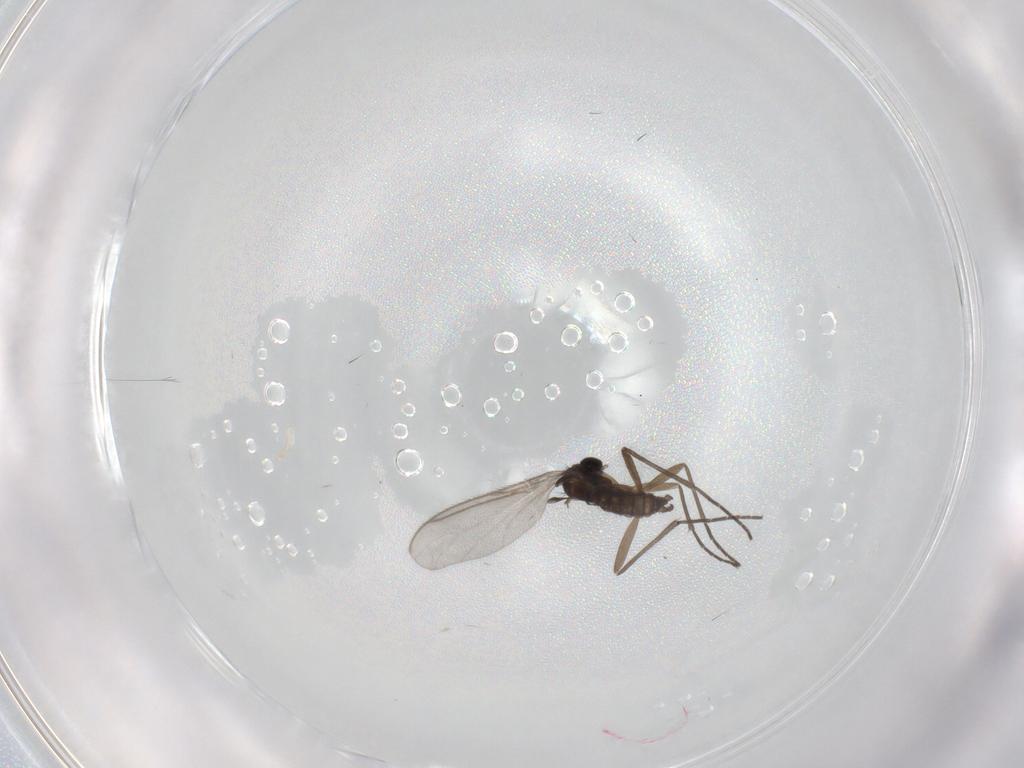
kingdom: Animalia
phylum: Arthropoda
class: Insecta
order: Diptera
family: Sciaridae
